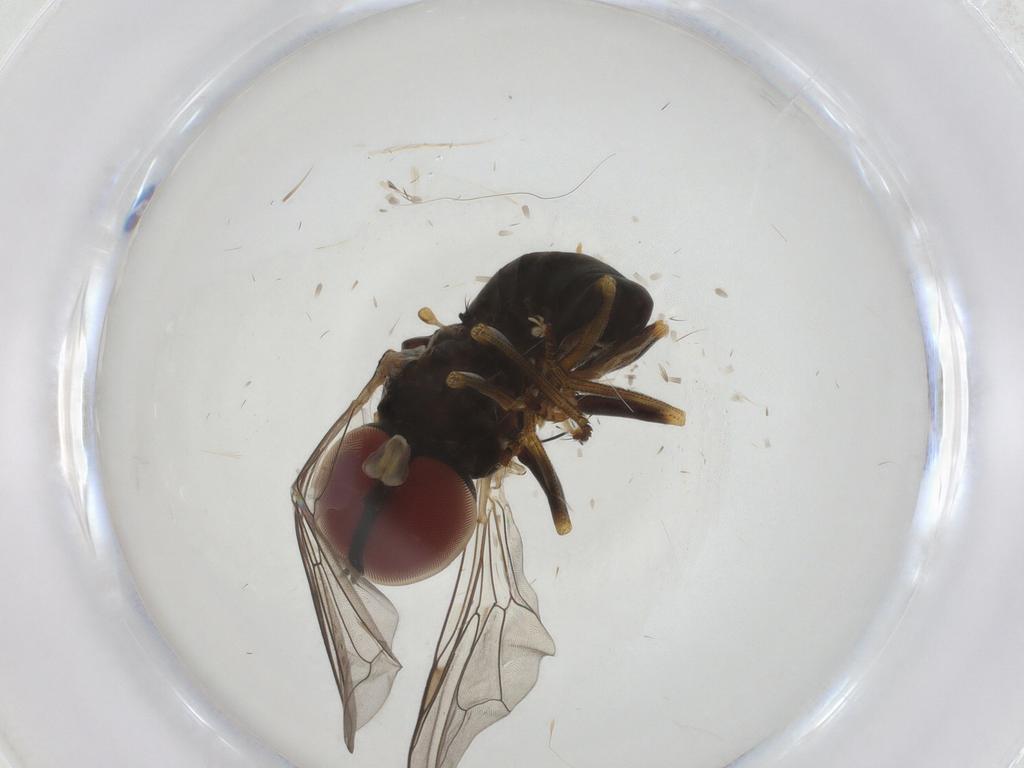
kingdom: Animalia
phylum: Arthropoda
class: Insecta
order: Diptera
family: Pipunculidae
